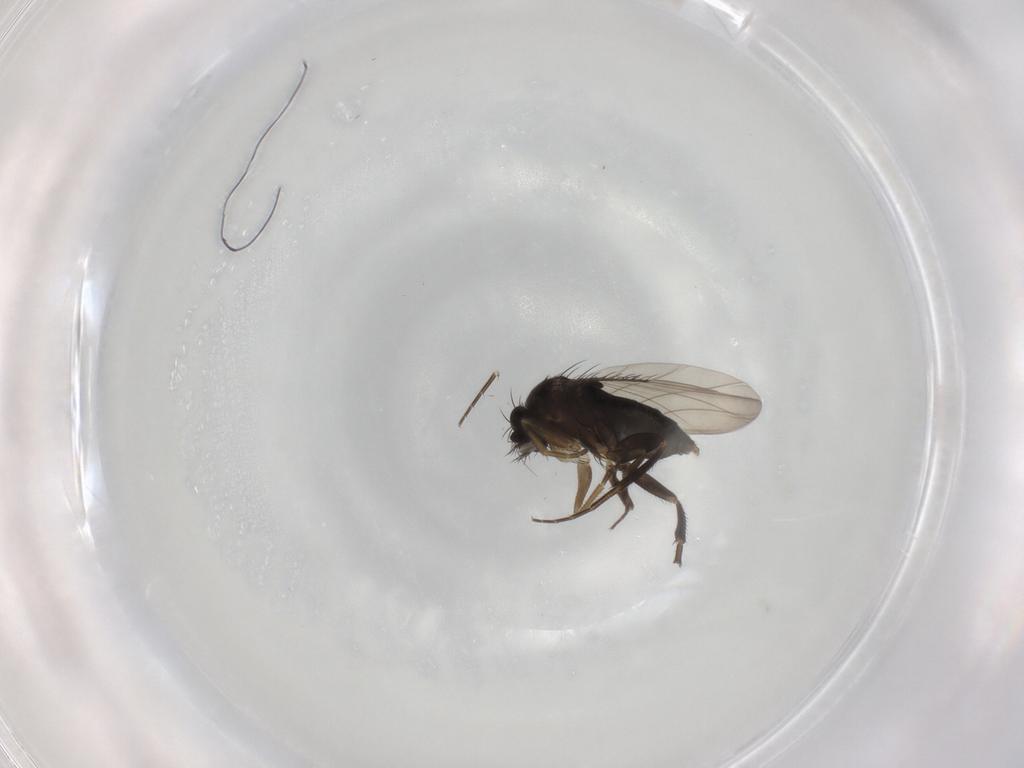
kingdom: Animalia
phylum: Arthropoda
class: Insecta
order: Diptera
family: Phoridae
